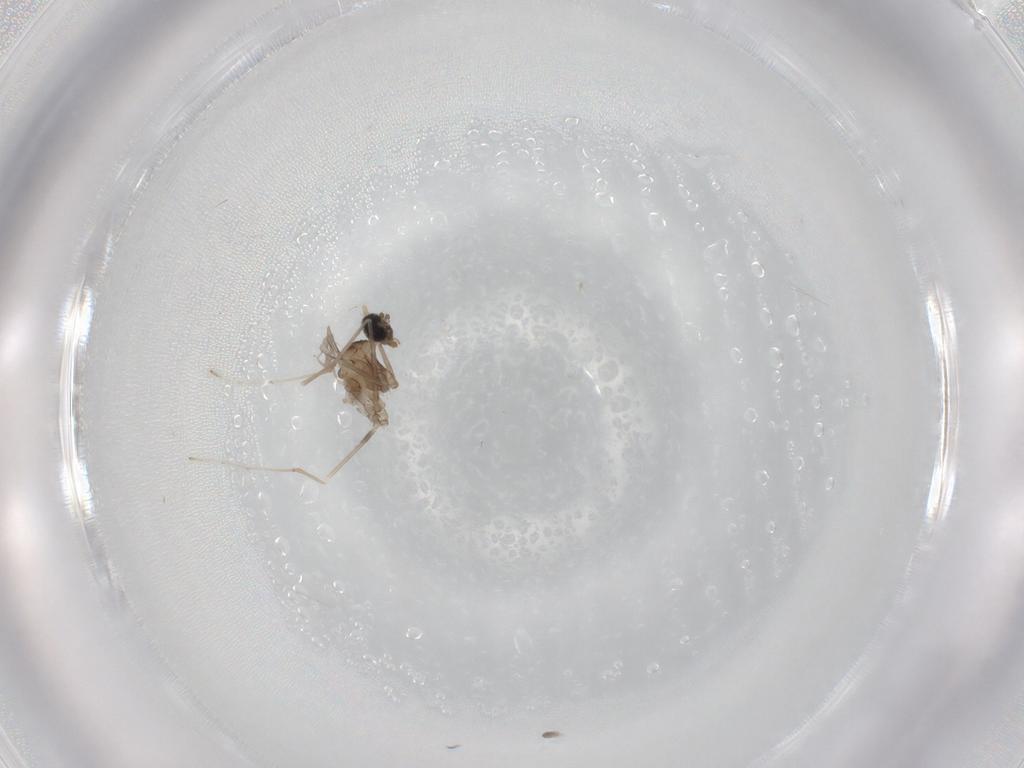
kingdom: Animalia
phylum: Arthropoda
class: Insecta
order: Diptera
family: Cecidomyiidae
